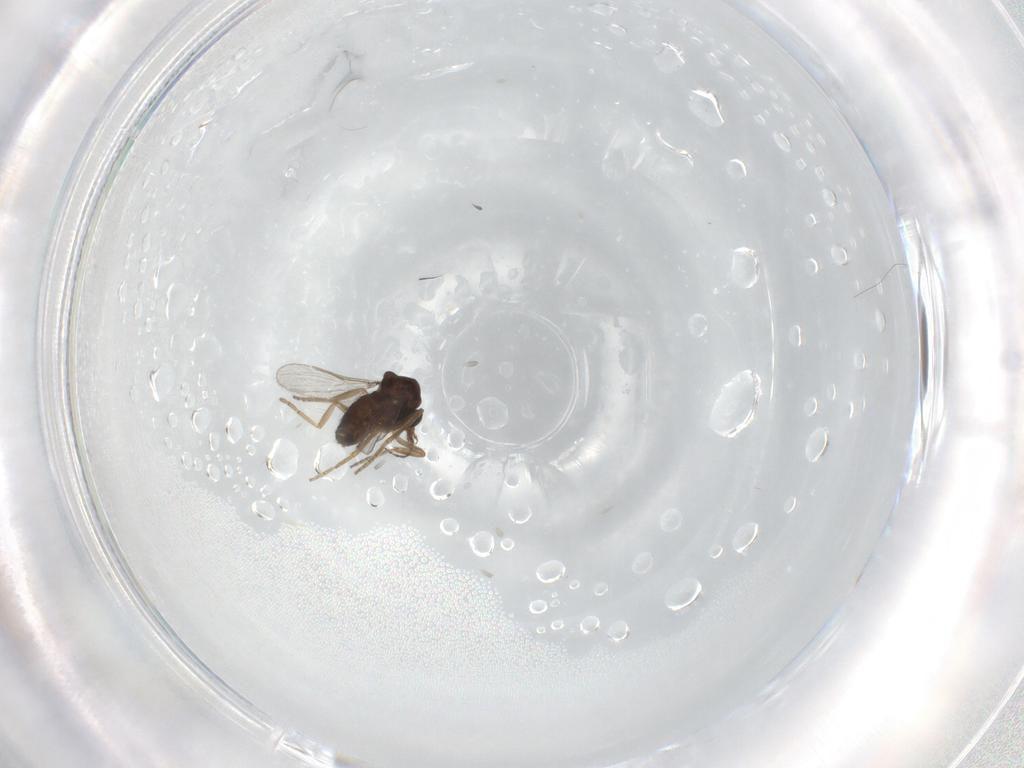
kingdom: Animalia
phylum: Arthropoda
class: Insecta
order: Diptera
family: Ceratopogonidae
